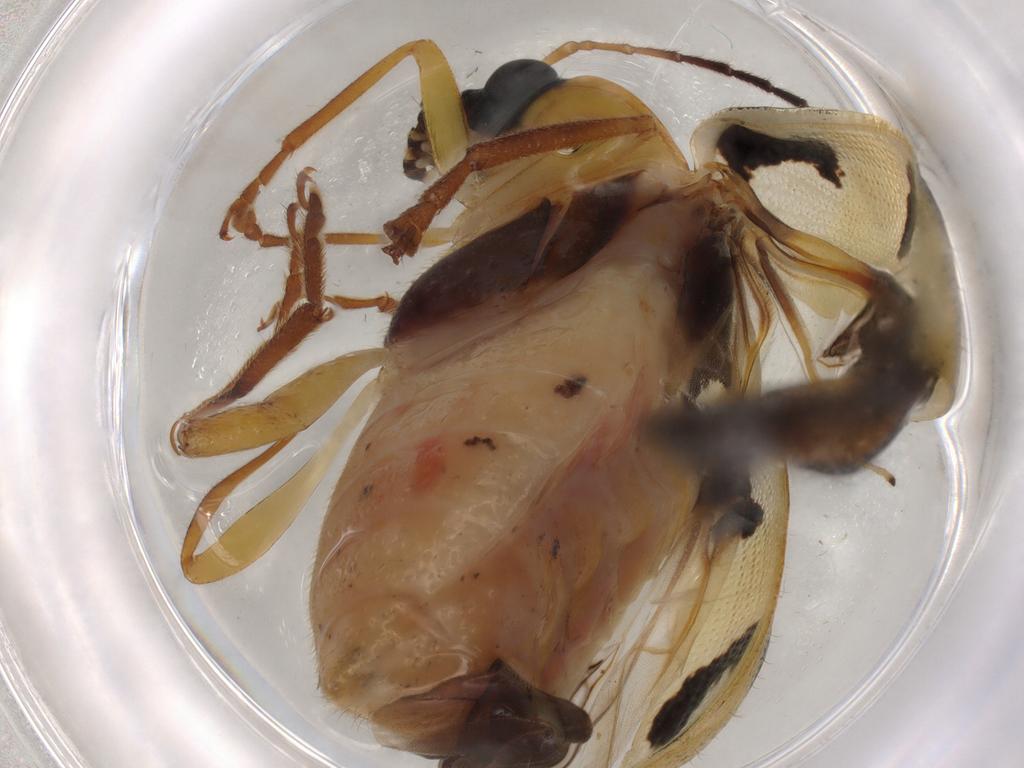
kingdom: Animalia
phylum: Arthropoda
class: Insecta
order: Coleoptera
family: Chrysomelidae
